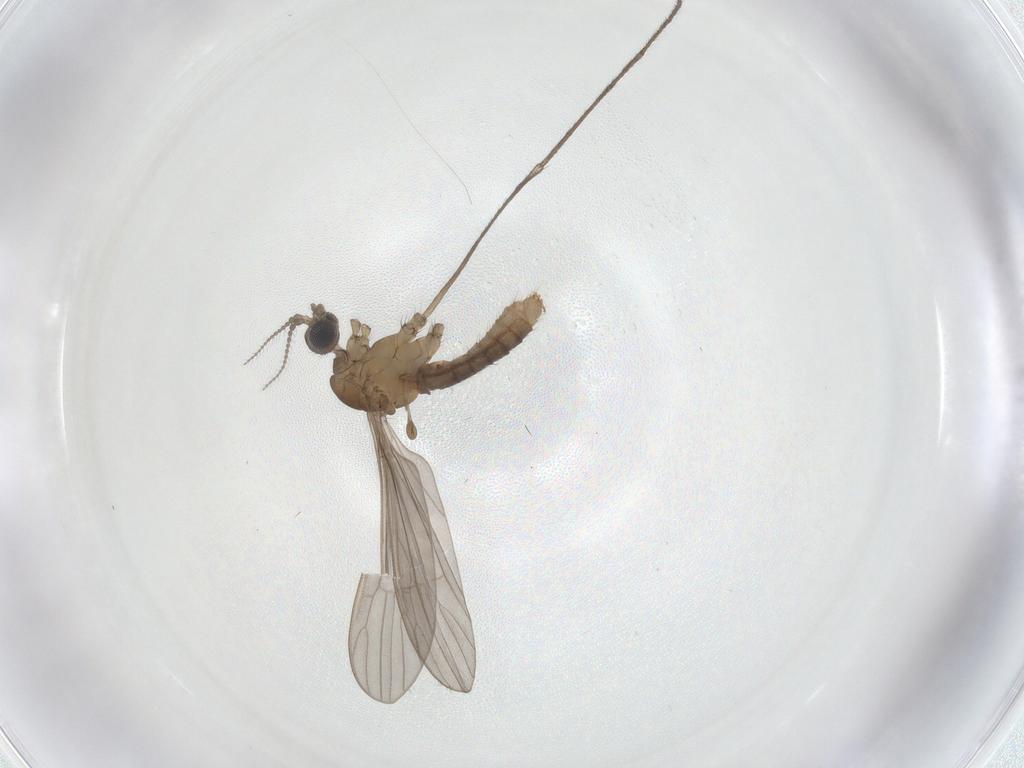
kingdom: Animalia
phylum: Arthropoda
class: Insecta
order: Diptera
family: Limoniidae
